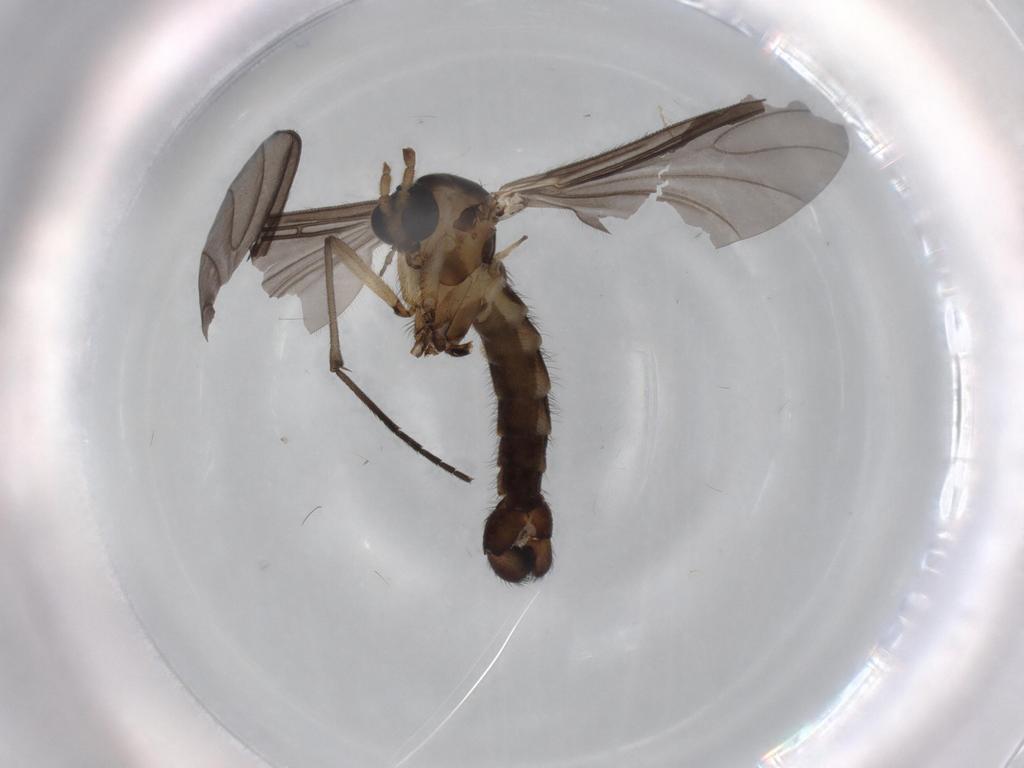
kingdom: Animalia
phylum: Arthropoda
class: Insecta
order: Diptera
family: Sciaridae
